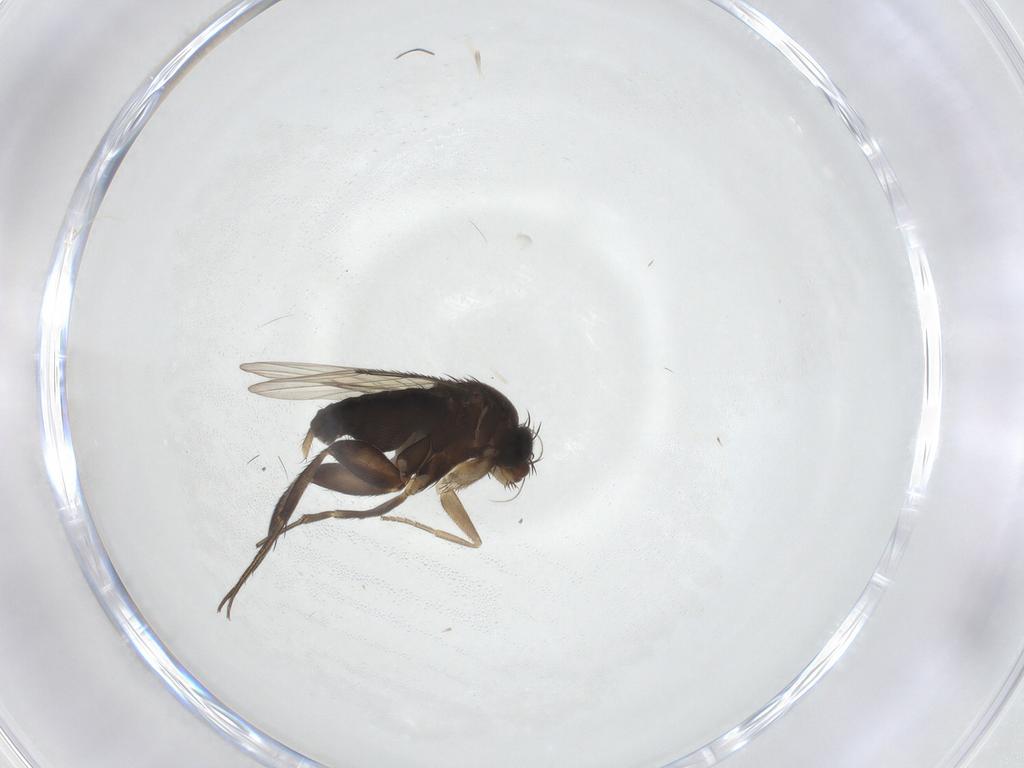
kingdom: Animalia
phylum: Arthropoda
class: Insecta
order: Diptera
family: Phoridae
